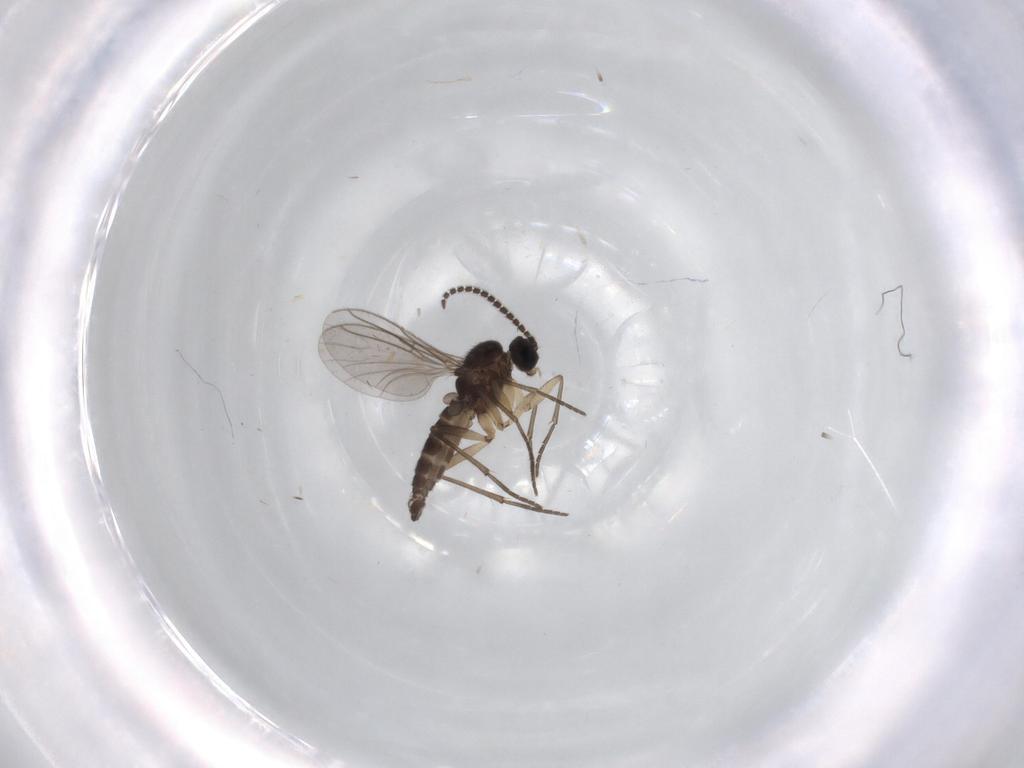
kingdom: Animalia
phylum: Arthropoda
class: Insecta
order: Diptera
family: Sciaridae
